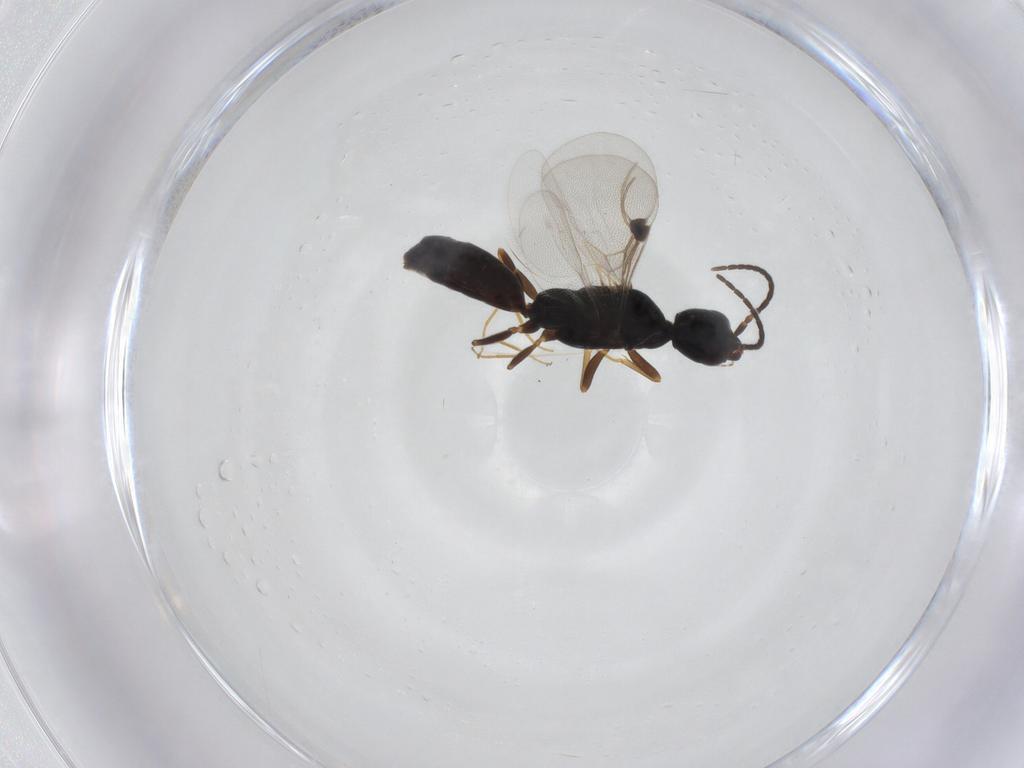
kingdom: Animalia
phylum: Arthropoda
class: Insecta
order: Hymenoptera
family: Bethylidae
